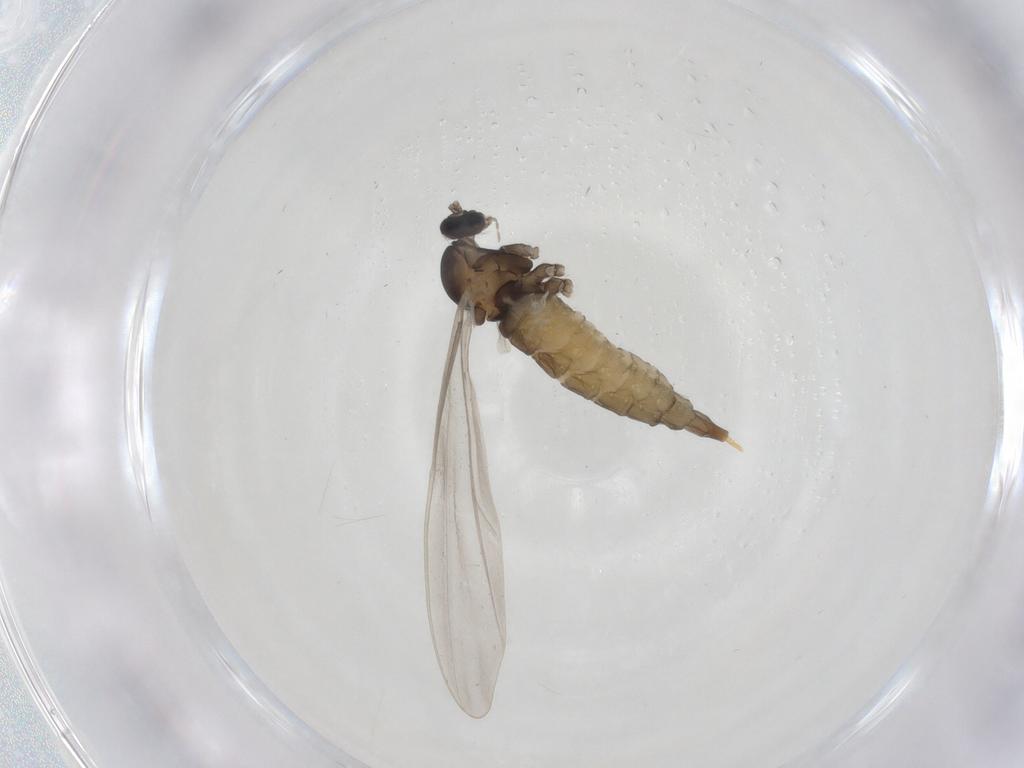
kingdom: Animalia
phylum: Arthropoda
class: Insecta
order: Diptera
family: Cecidomyiidae
